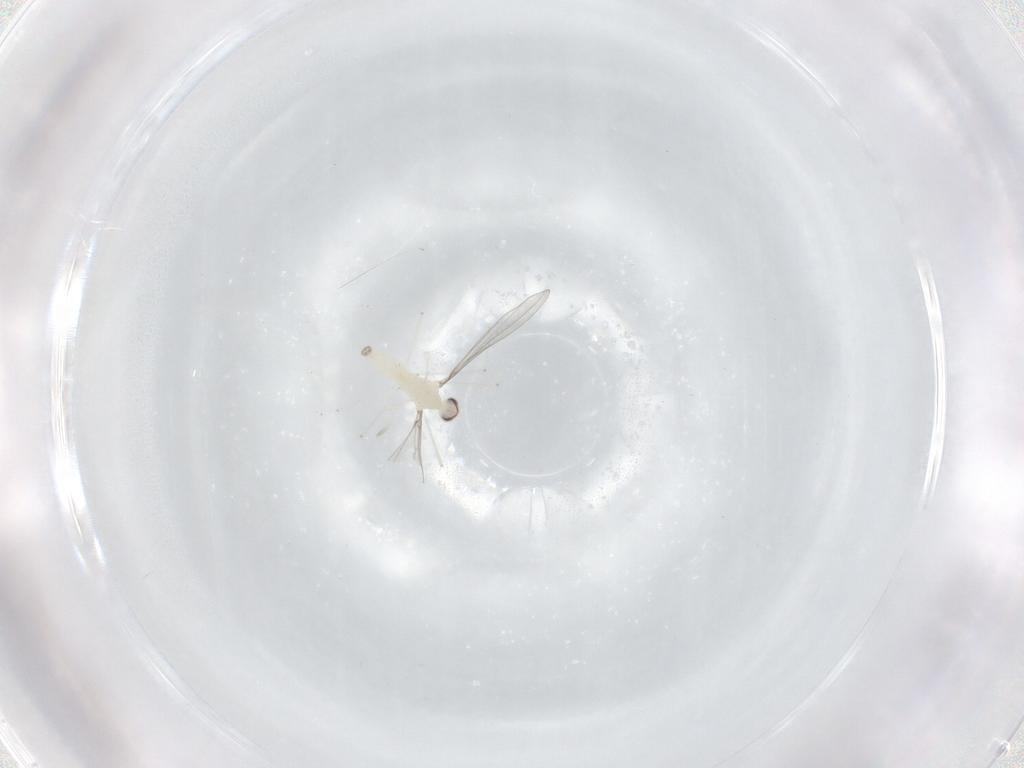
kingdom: Animalia
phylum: Arthropoda
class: Insecta
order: Diptera
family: Cecidomyiidae
